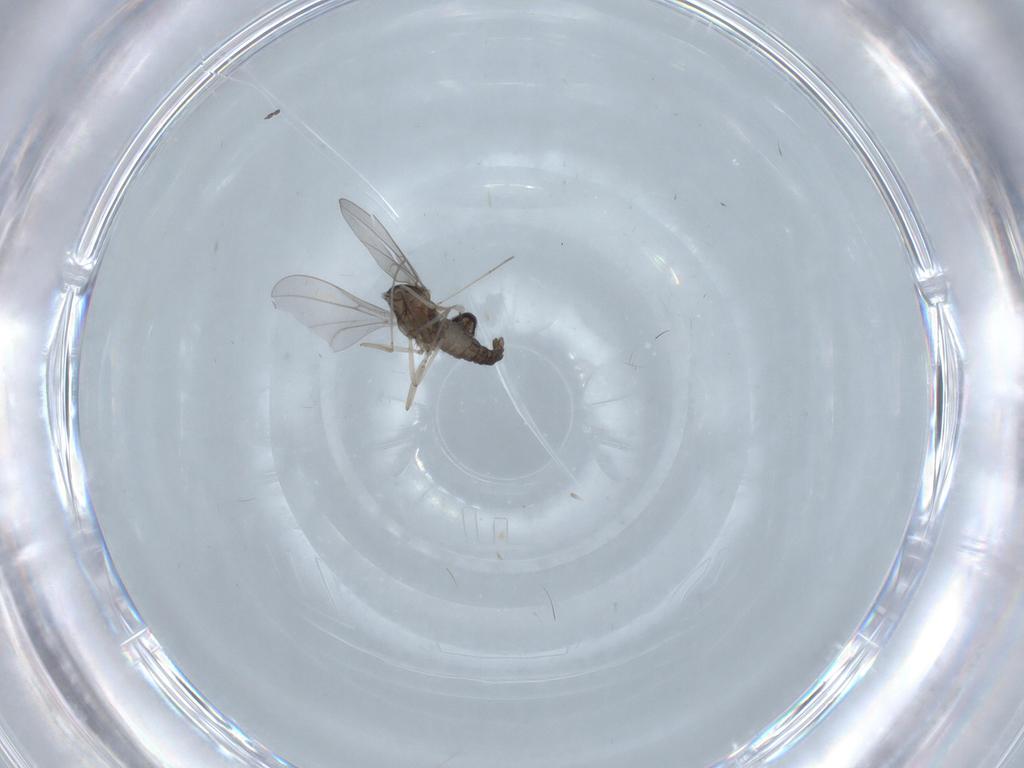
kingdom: Animalia
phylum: Arthropoda
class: Insecta
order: Diptera
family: Cecidomyiidae
